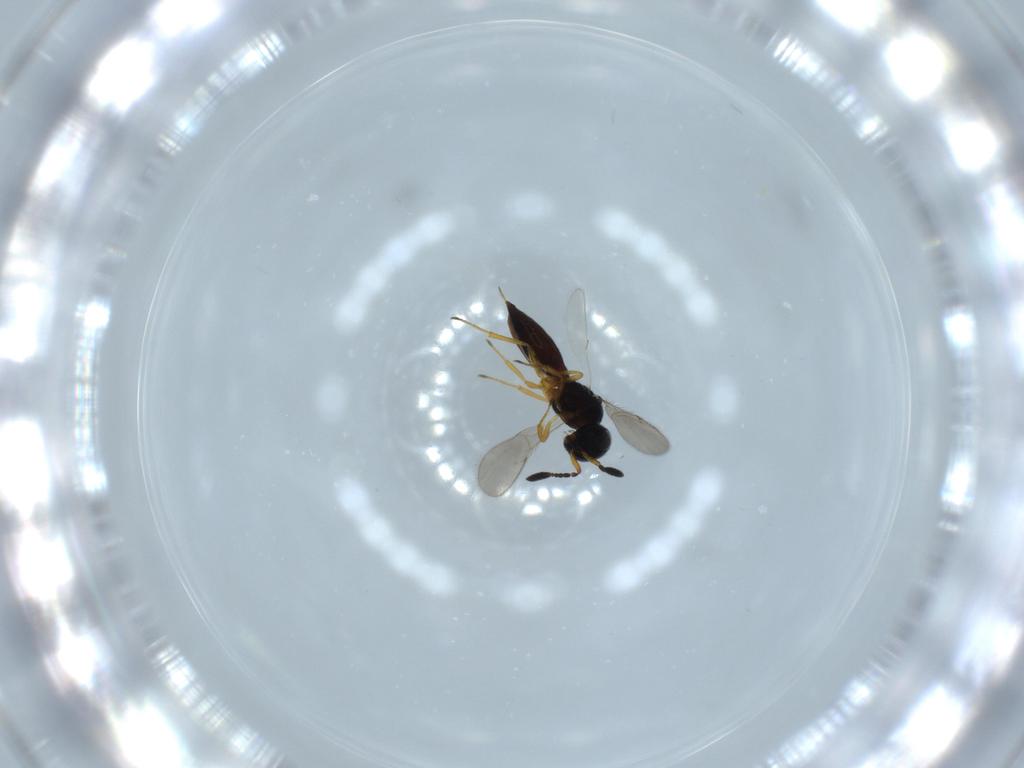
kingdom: Animalia
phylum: Arthropoda
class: Insecta
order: Hymenoptera
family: Scelionidae
